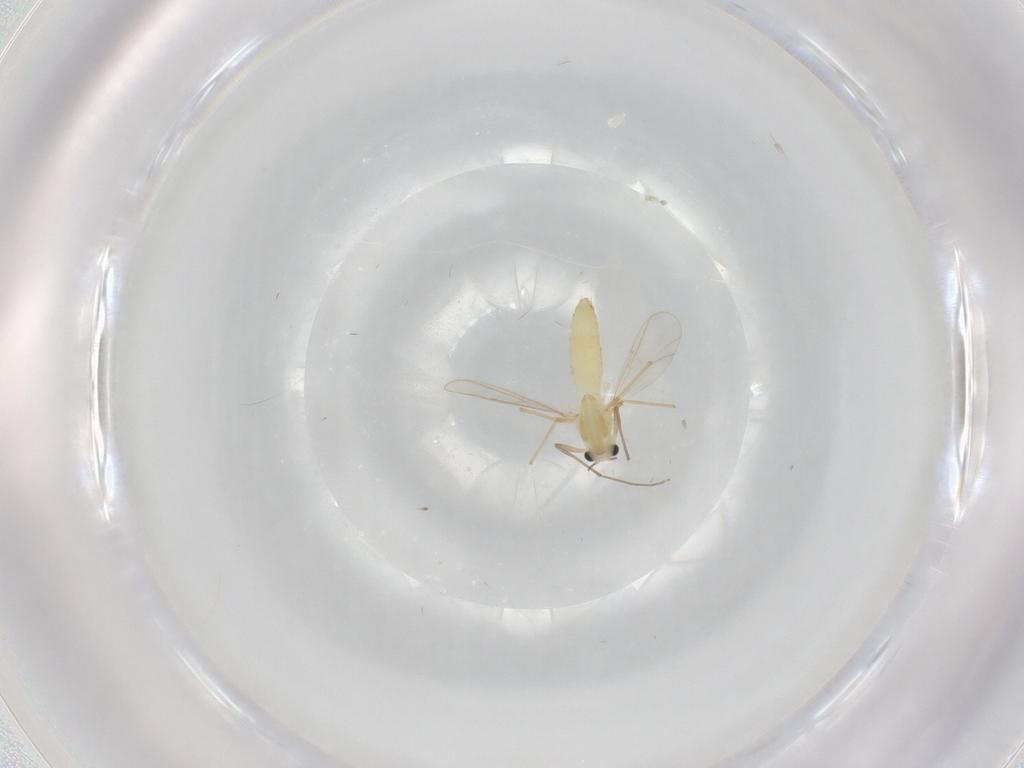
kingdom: Animalia
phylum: Arthropoda
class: Insecta
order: Diptera
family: Chironomidae
